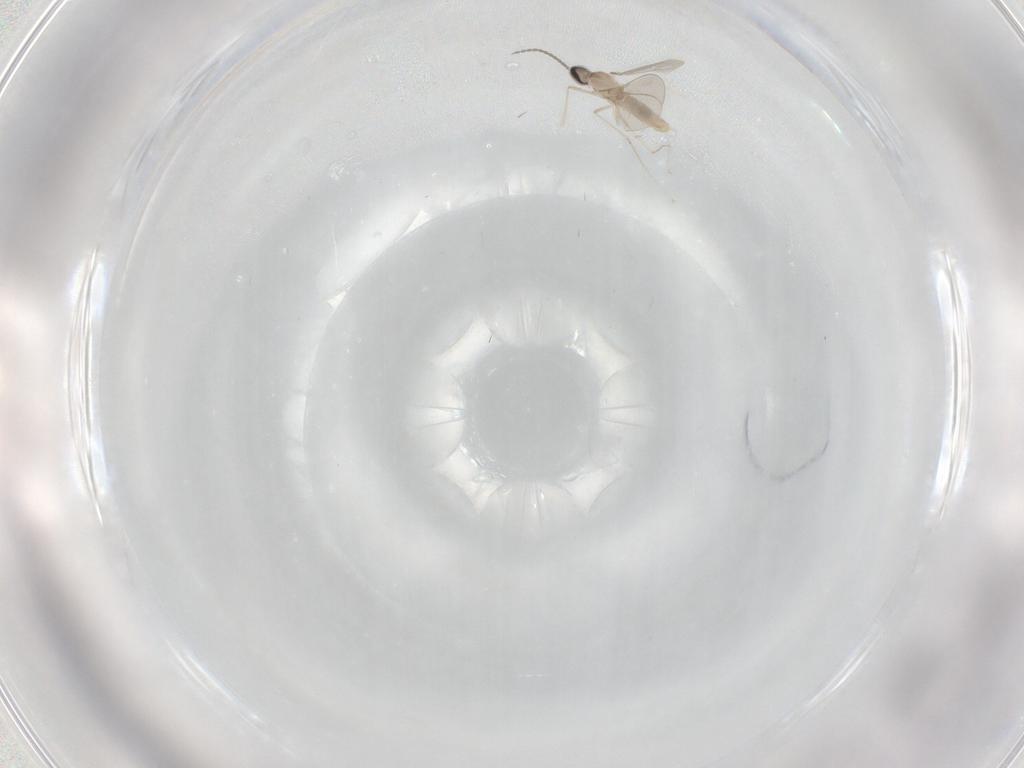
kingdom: Animalia
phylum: Arthropoda
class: Insecta
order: Diptera
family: Cecidomyiidae
